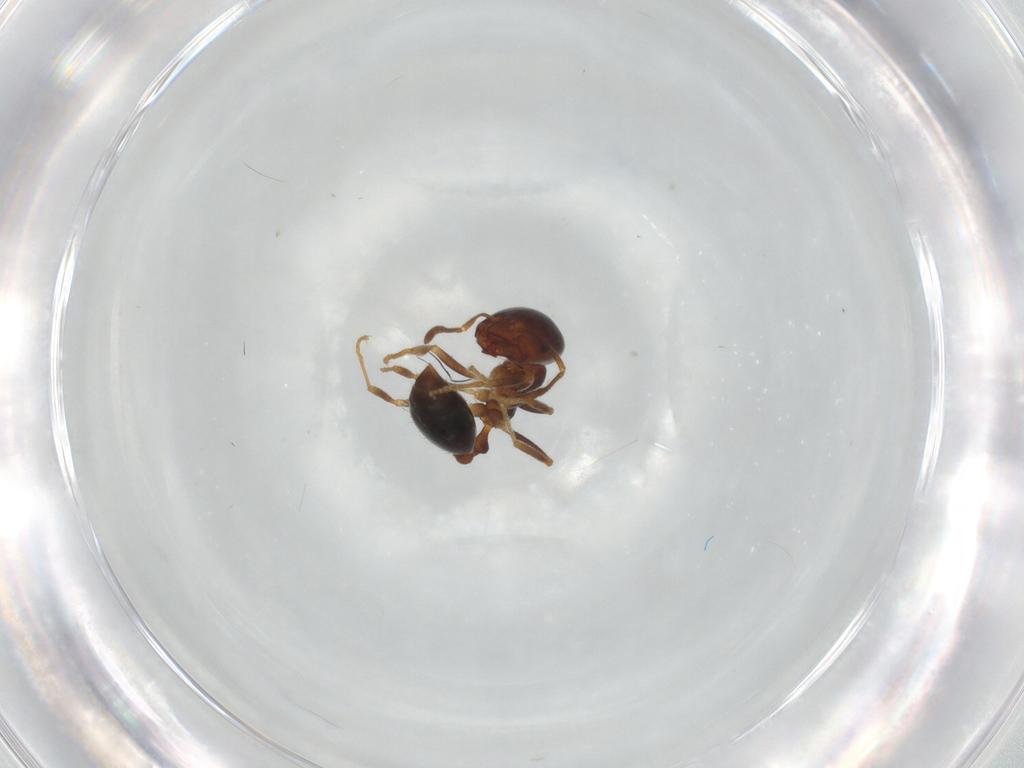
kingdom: Animalia
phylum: Arthropoda
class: Insecta
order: Hymenoptera
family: Formicidae
